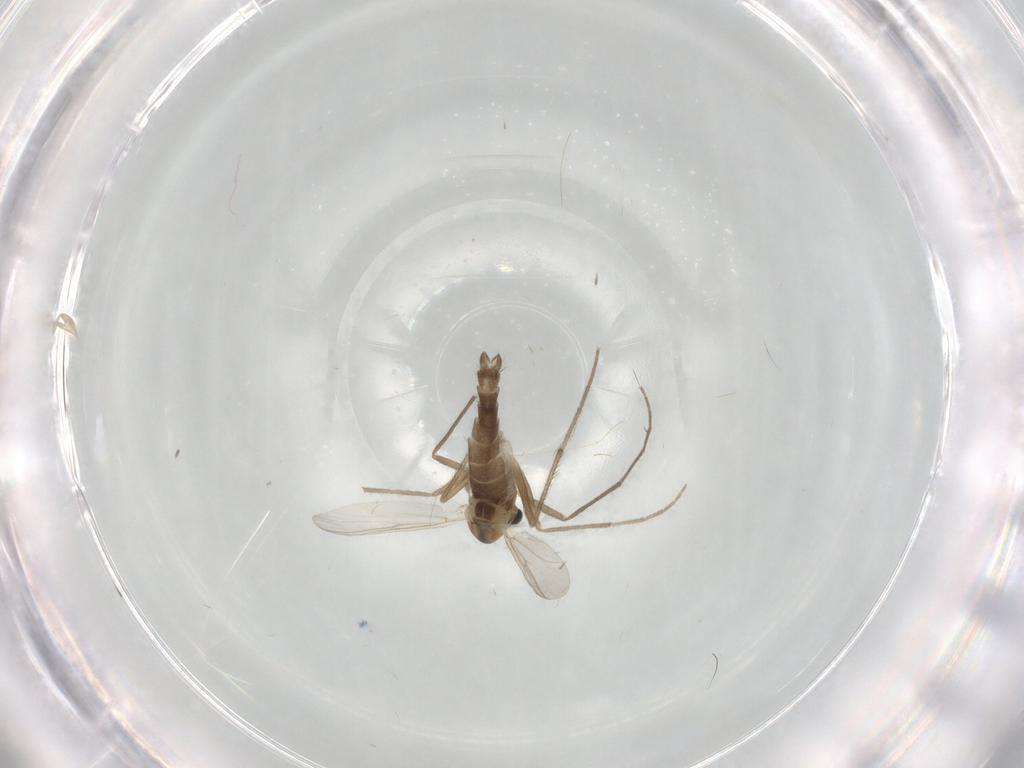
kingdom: Animalia
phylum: Arthropoda
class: Insecta
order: Diptera
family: Chironomidae
